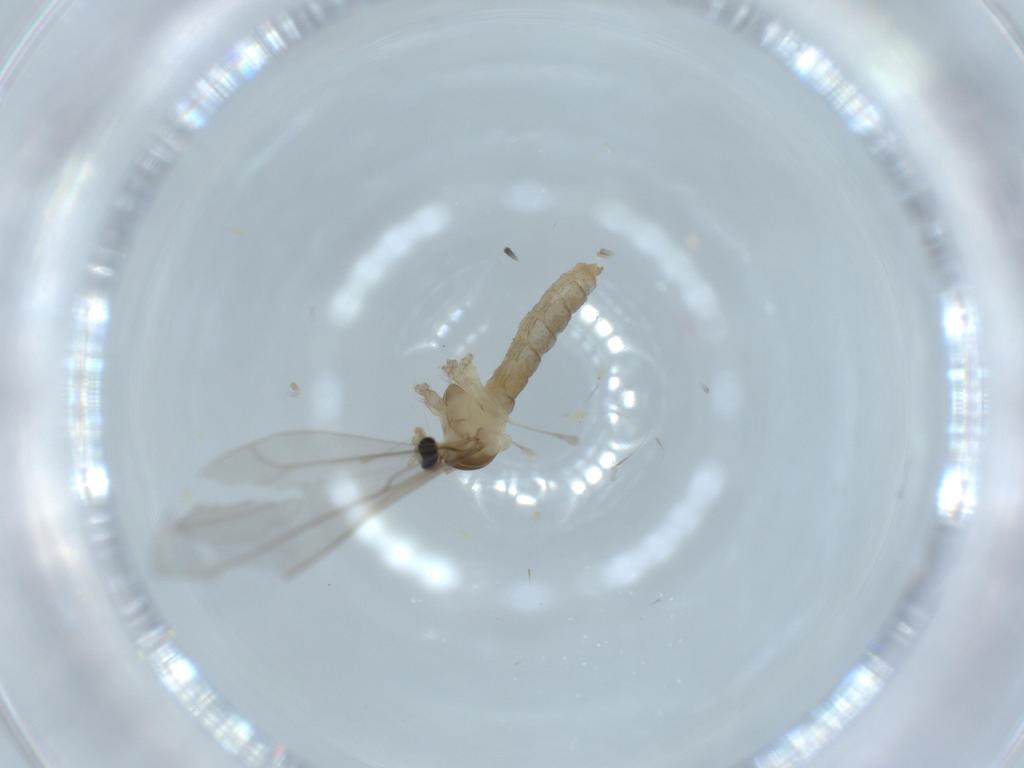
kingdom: Animalia
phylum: Arthropoda
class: Insecta
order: Diptera
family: Cecidomyiidae
